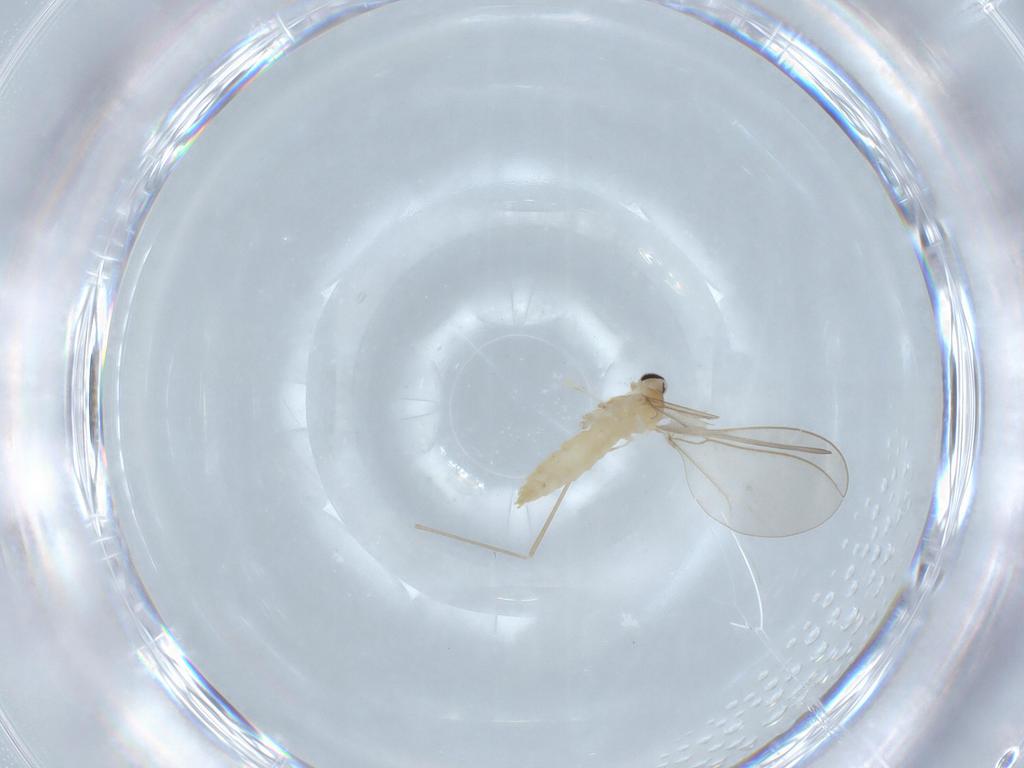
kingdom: Animalia
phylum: Arthropoda
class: Insecta
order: Diptera
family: Cecidomyiidae
